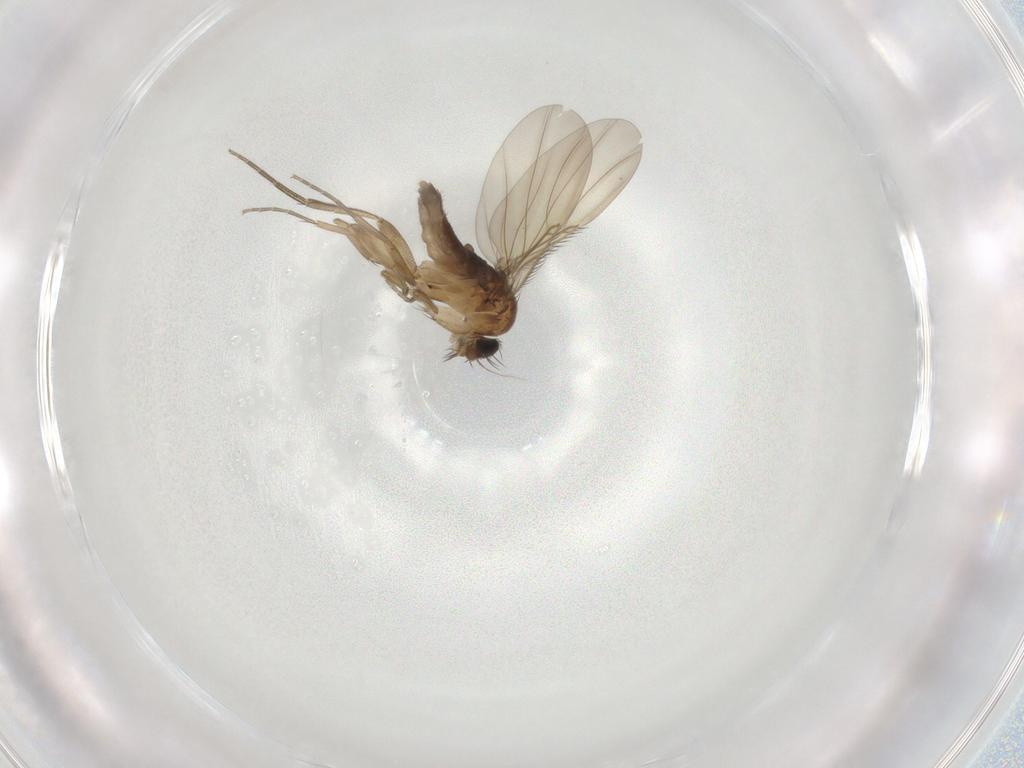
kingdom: Animalia
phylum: Arthropoda
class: Insecta
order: Diptera
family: Phoridae
